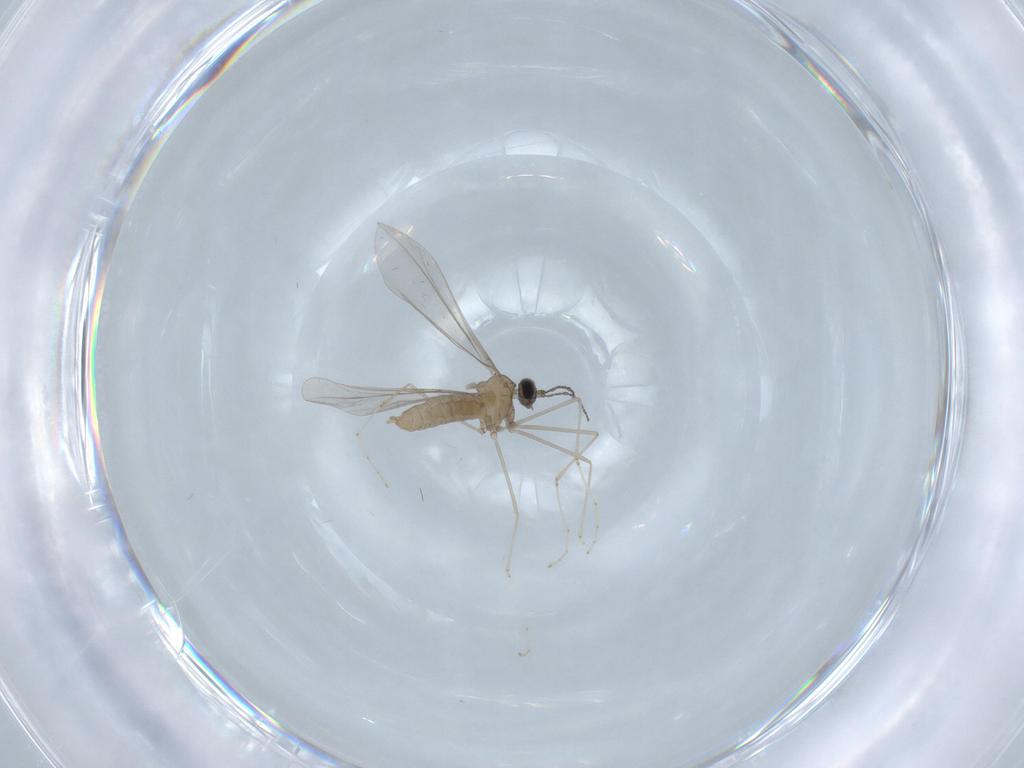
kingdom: Animalia
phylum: Arthropoda
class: Insecta
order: Diptera
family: Cecidomyiidae
